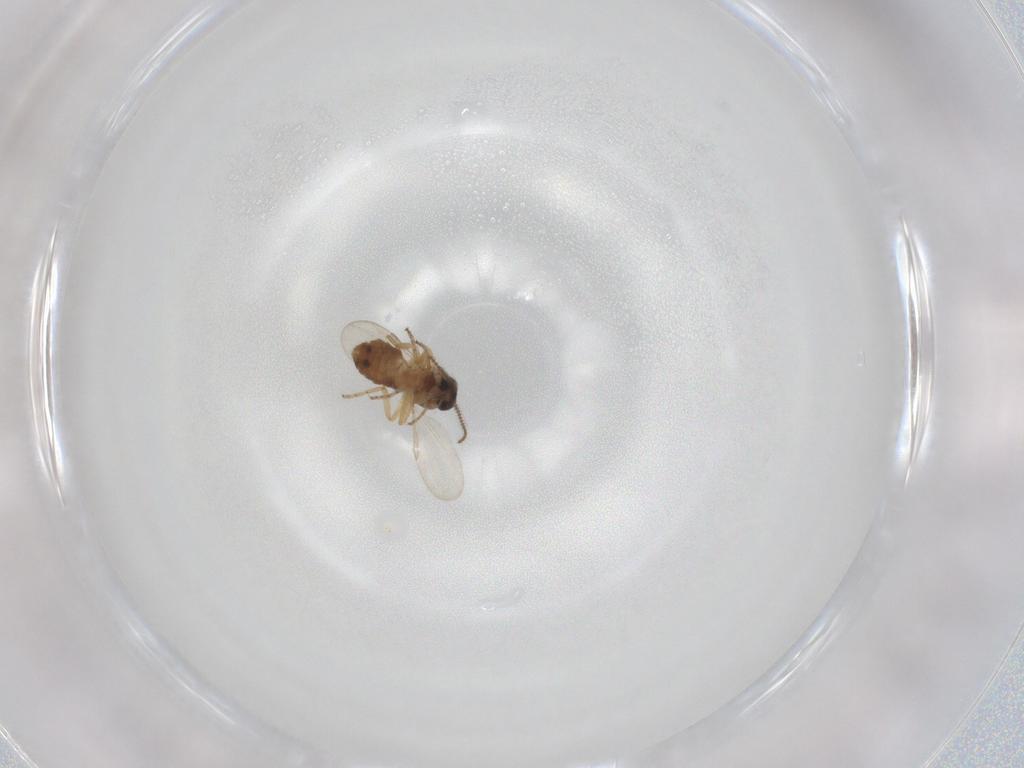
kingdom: Animalia
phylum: Arthropoda
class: Insecta
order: Diptera
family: Ceratopogonidae
